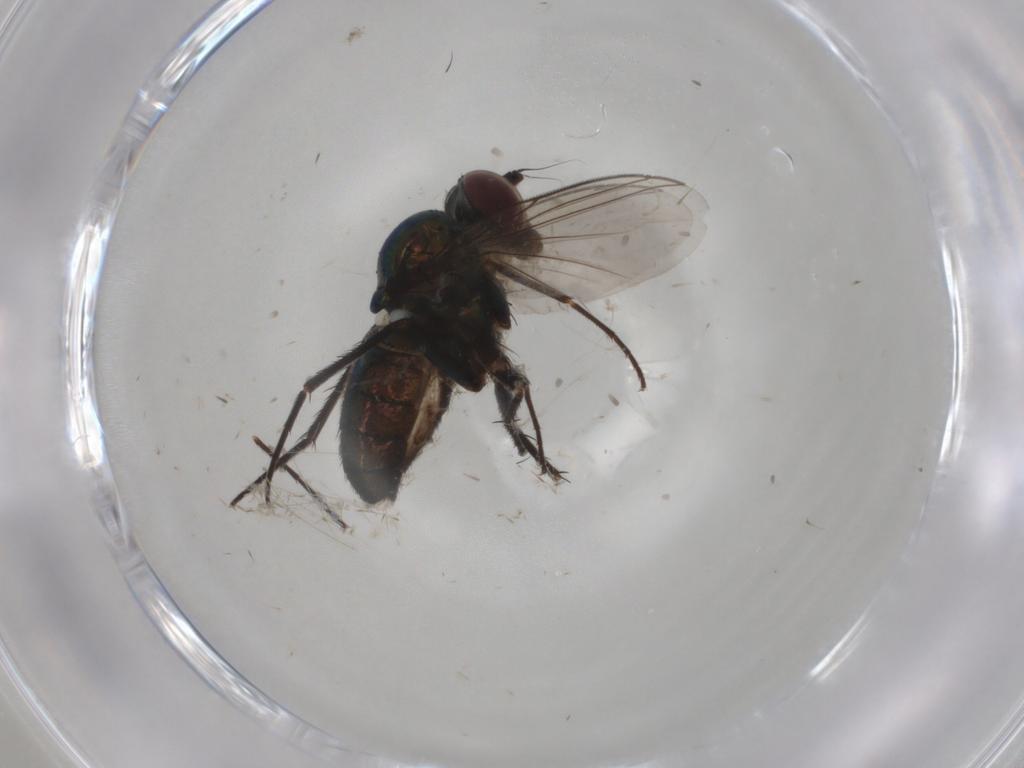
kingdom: Animalia
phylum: Arthropoda
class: Insecta
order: Diptera
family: Dolichopodidae
